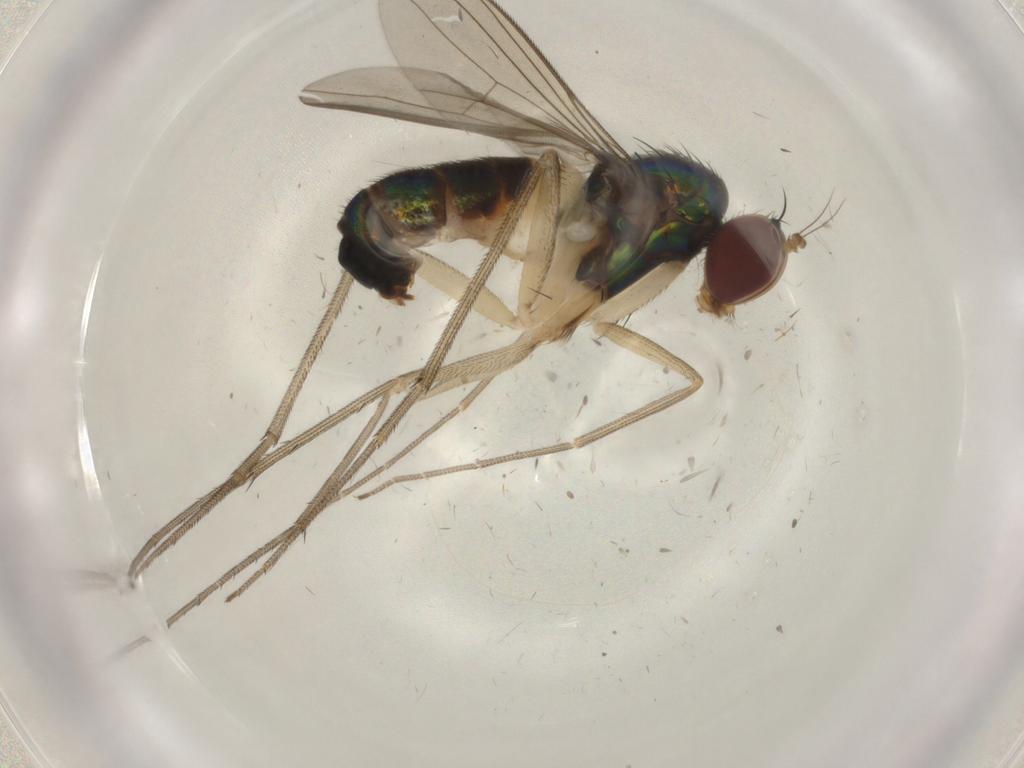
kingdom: Animalia
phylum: Arthropoda
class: Insecta
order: Diptera
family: Dolichopodidae
